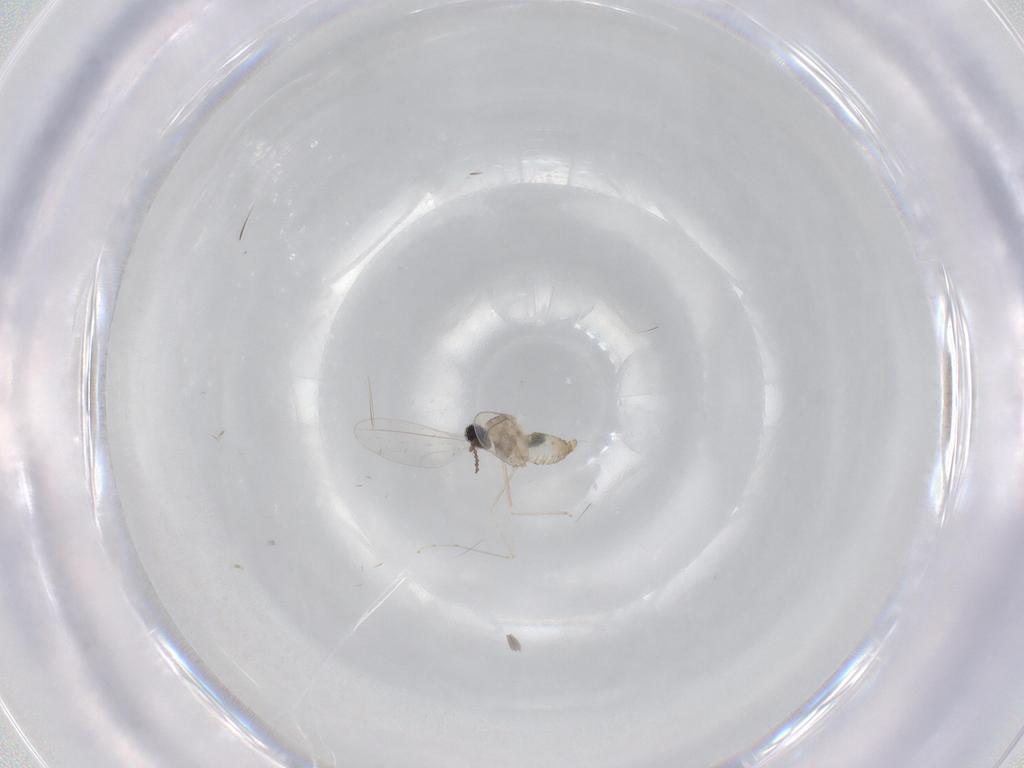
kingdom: Animalia
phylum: Arthropoda
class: Insecta
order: Diptera
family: Cecidomyiidae
